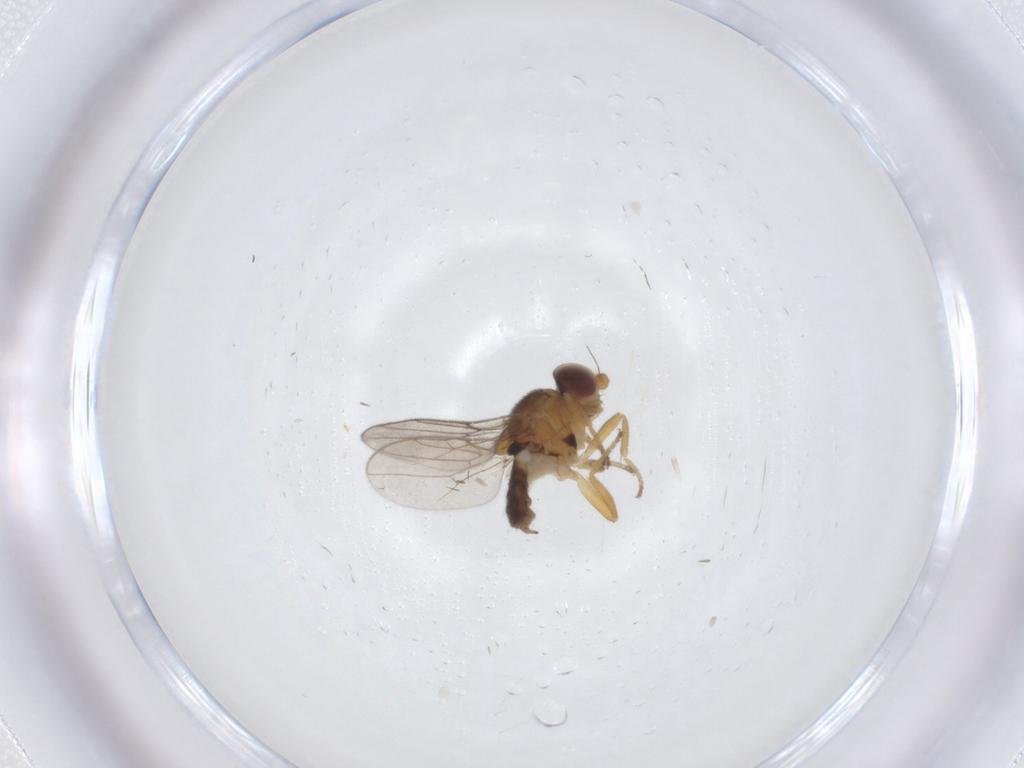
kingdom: Animalia
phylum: Arthropoda
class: Insecta
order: Diptera
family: Chloropidae
